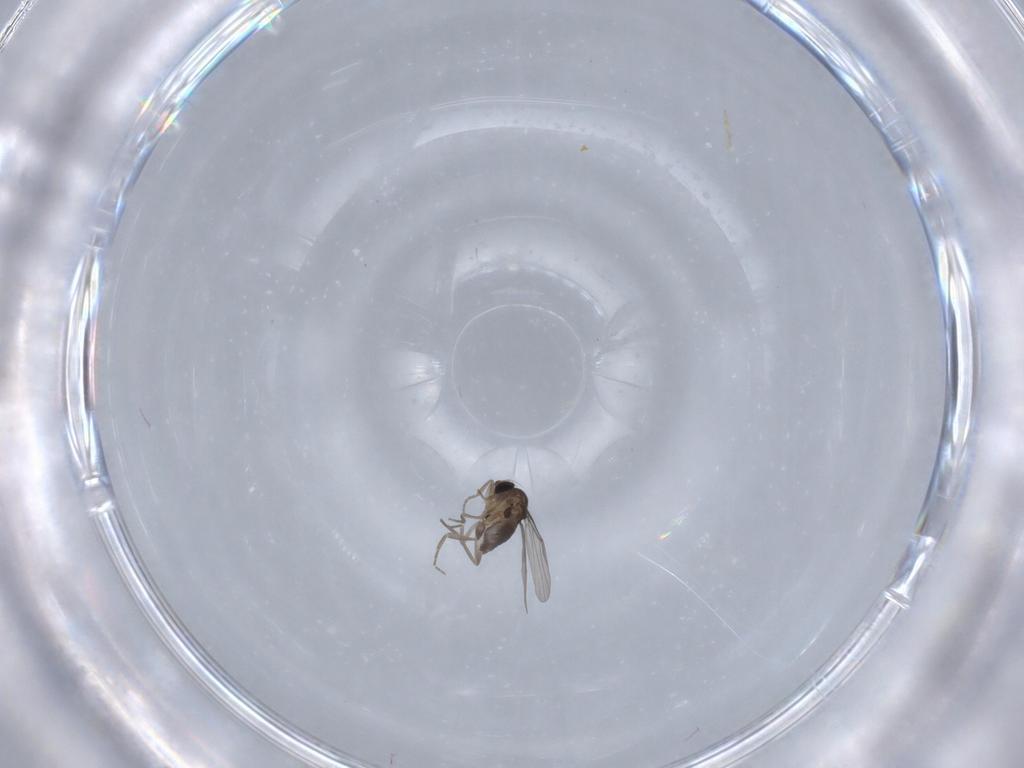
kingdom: Animalia
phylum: Arthropoda
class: Insecta
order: Diptera
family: Phoridae
